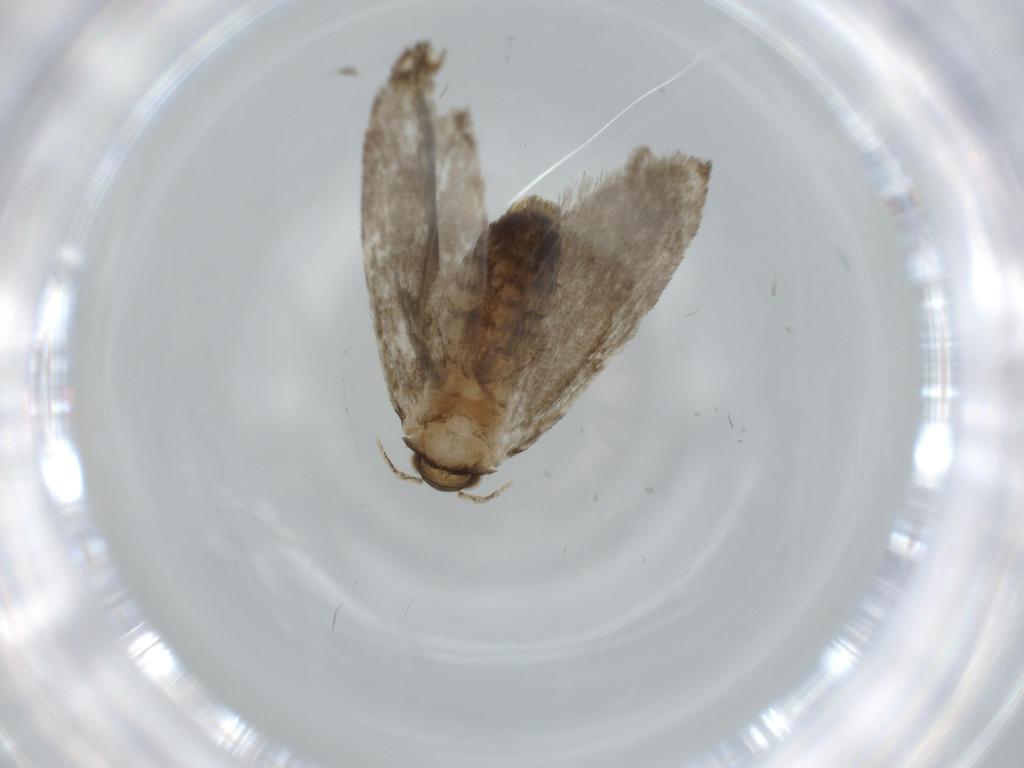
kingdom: Animalia
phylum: Arthropoda
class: Insecta
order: Lepidoptera
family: Tineidae
